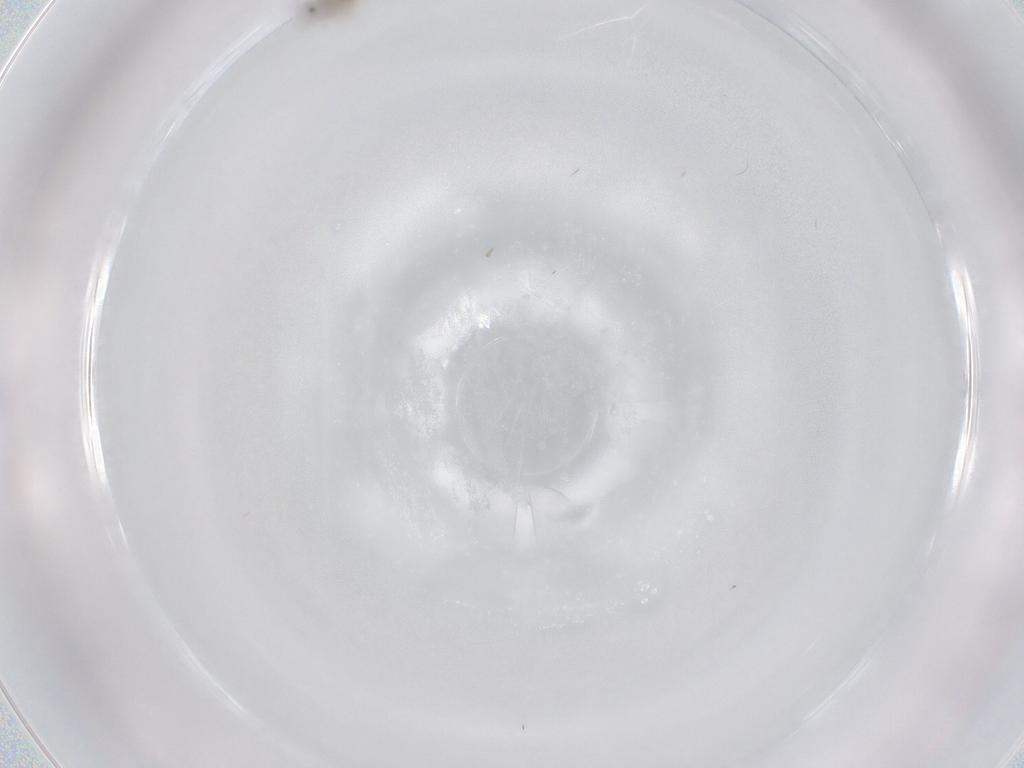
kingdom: Animalia
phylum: Arthropoda
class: Insecta
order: Diptera
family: Cecidomyiidae
